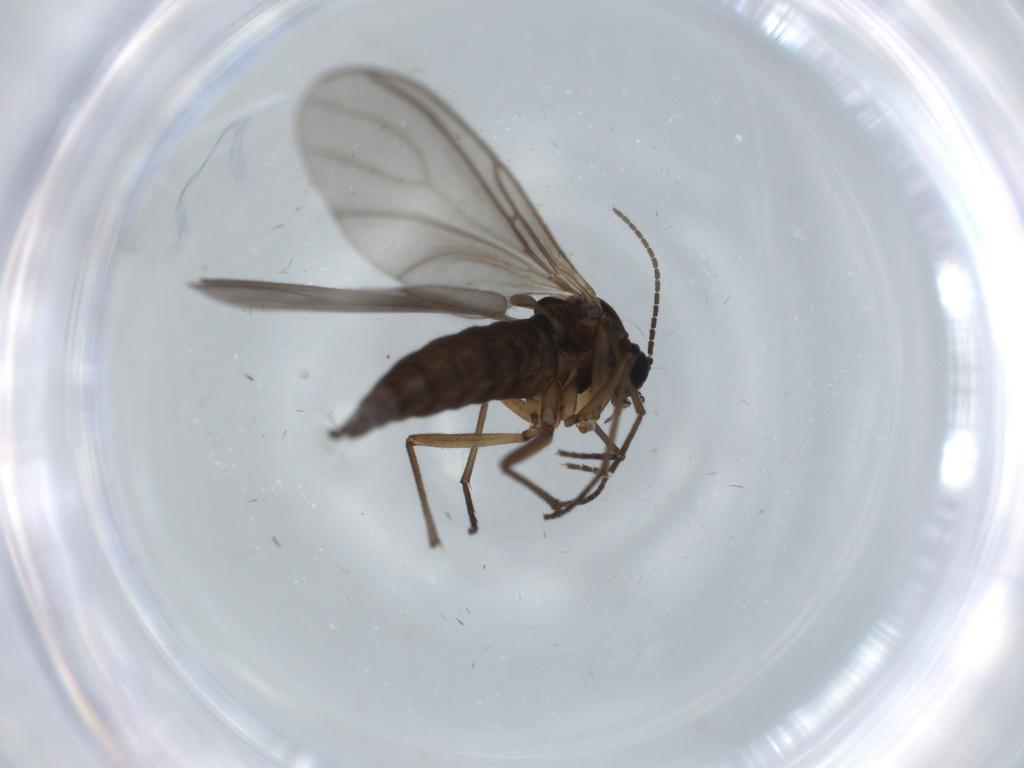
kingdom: Animalia
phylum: Arthropoda
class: Insecta
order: Diptera
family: Sciaridae
